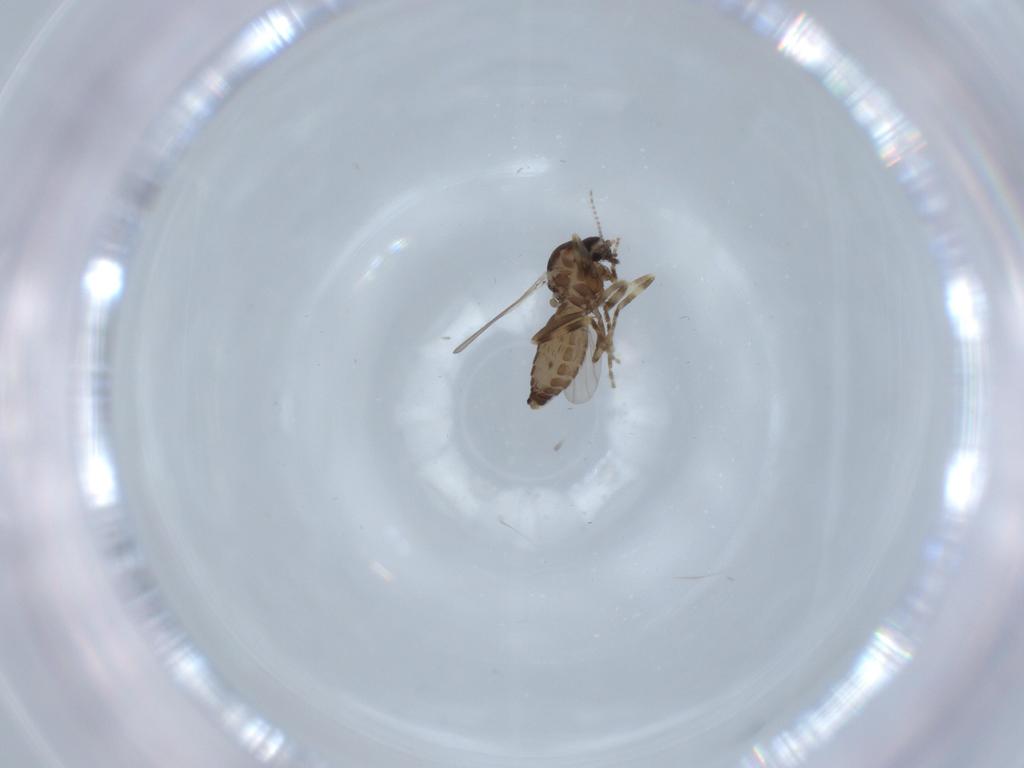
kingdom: Animalia
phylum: Arthropoda
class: Insecta
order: Diptera
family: Ceratopogonidae
